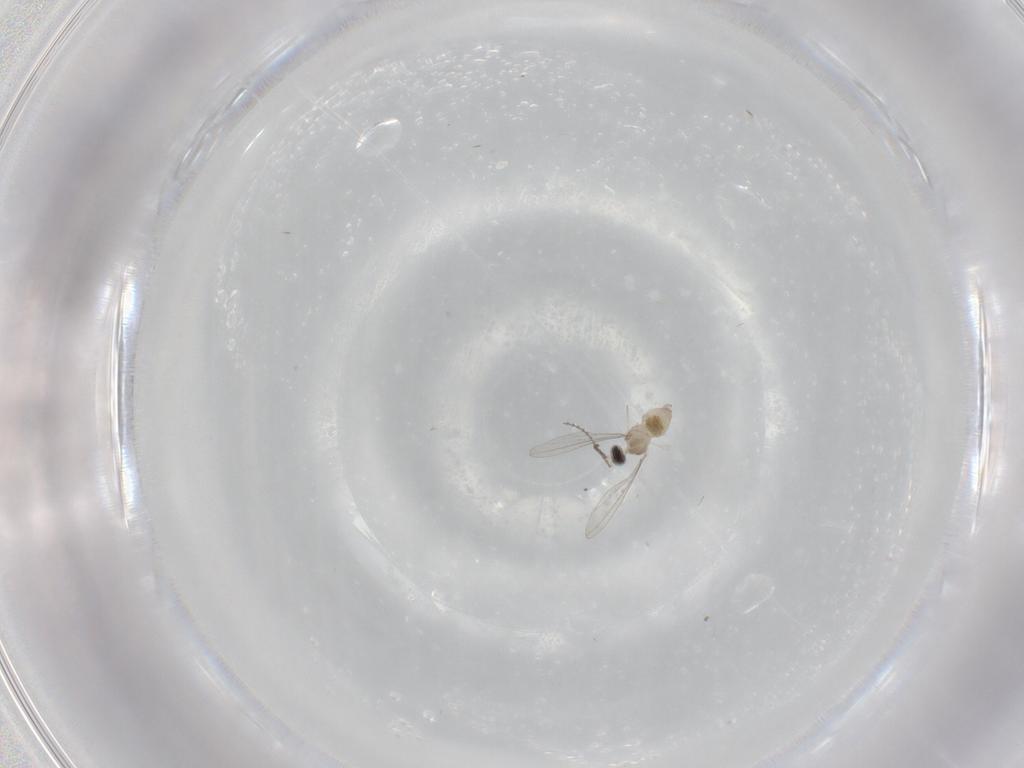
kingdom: Animalia
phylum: Arthropoda
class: Insecta
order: Diptera
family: Cecidomyiidae
